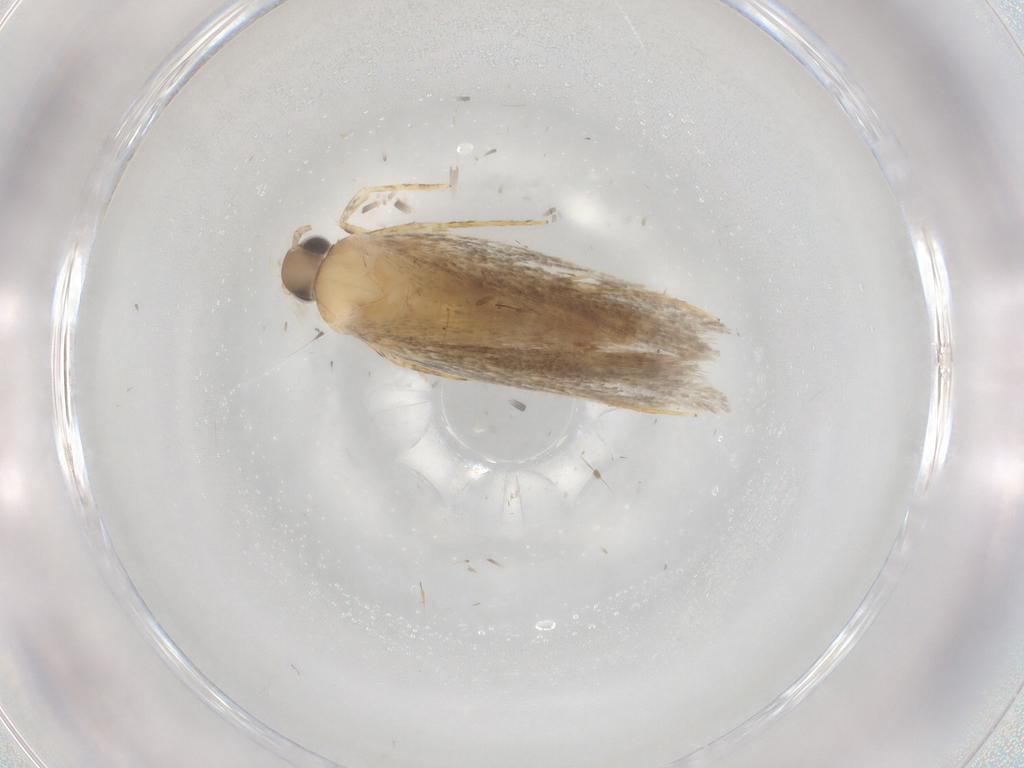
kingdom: Animalia
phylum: Arthropoda
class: Insecta
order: Lepidoptera
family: Autostichidae
